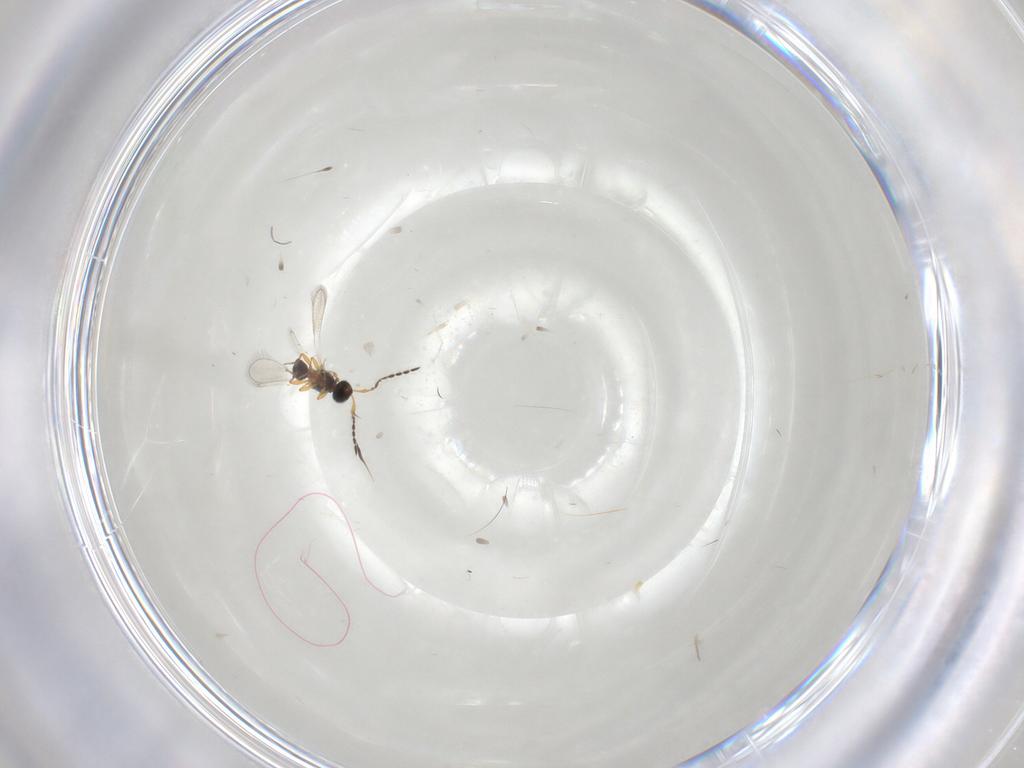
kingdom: Animalia
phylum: Arthropoda
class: Insecta
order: Hymenoptera
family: Platygastridae
